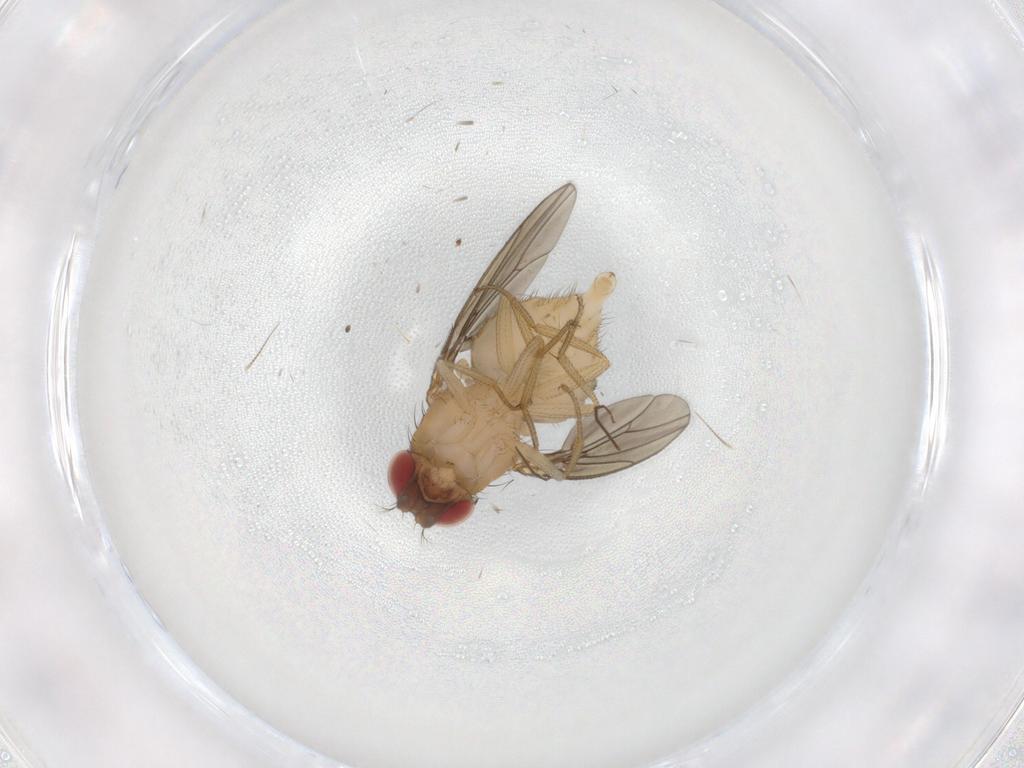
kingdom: Animalia
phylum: Arthropoda
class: Insecta
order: Diptera
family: Drosophilidae
